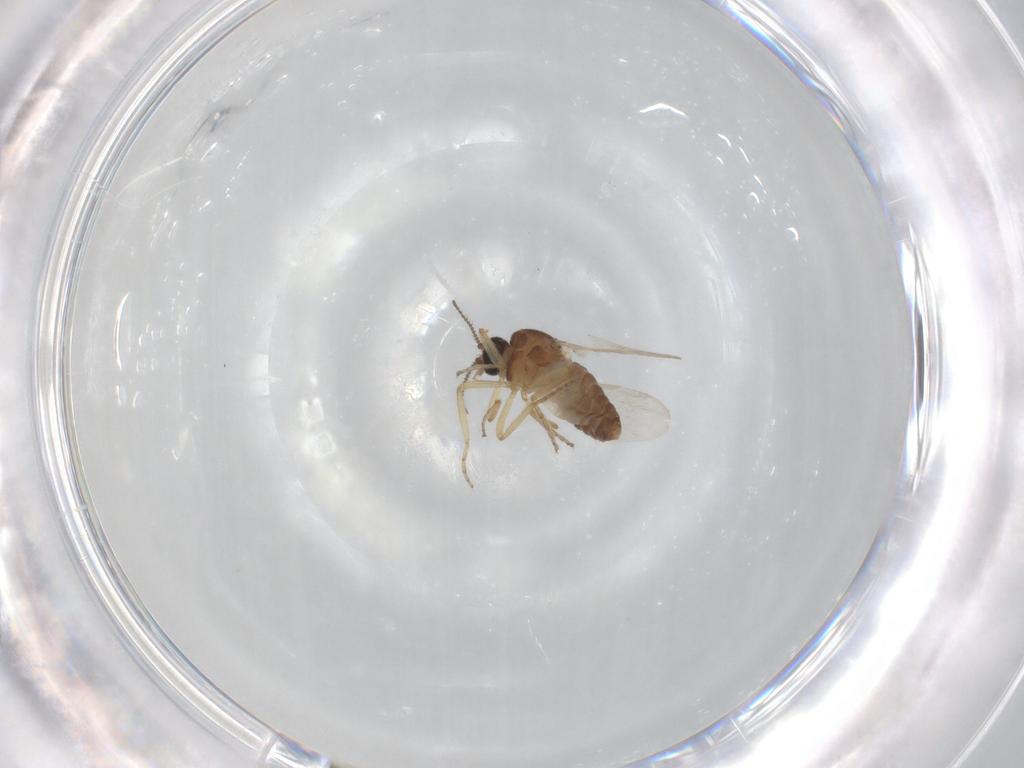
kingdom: Animalia
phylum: Arthropoda
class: Insecta
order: Diptera
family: Ceratopogonidae
